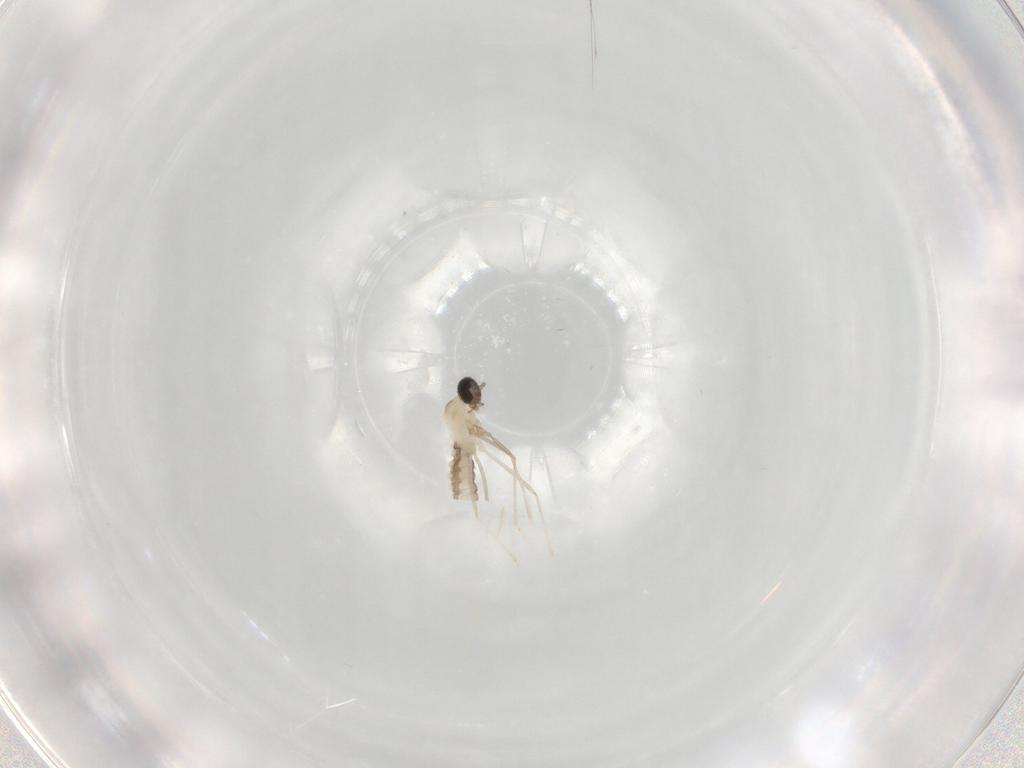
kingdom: Animalia
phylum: Arthropoda
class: Insecta
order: Diptera
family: Cecidomyiidae
